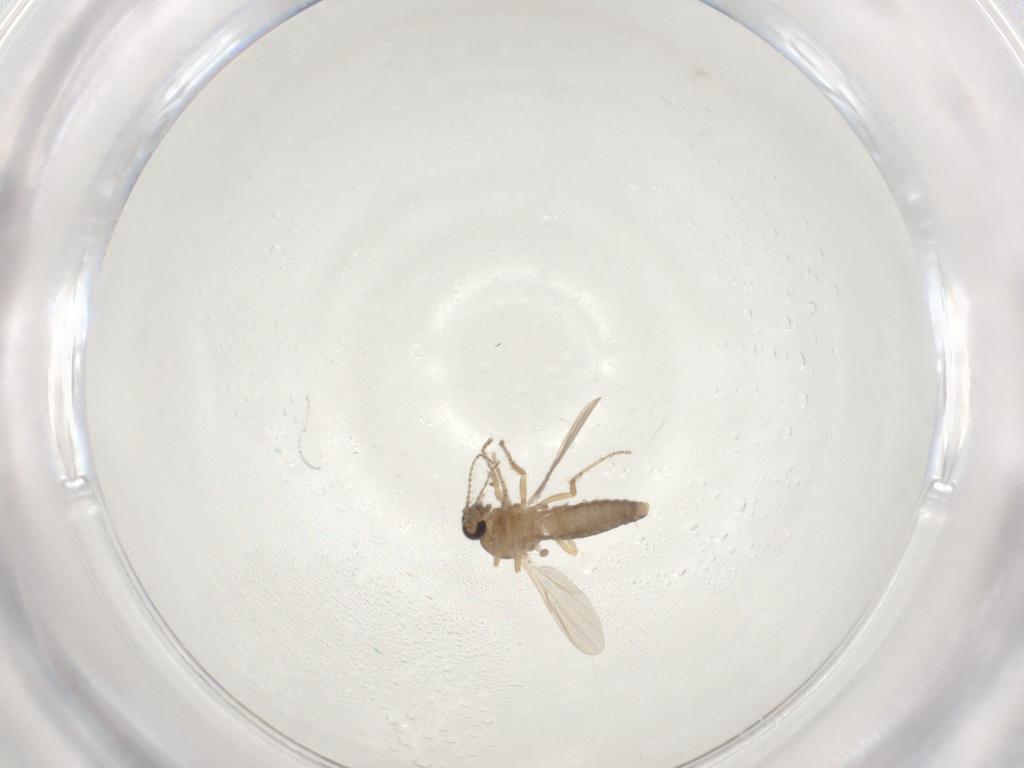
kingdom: Animalia
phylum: Arthropoda
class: Insecta
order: Diptera
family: Chironomidae
